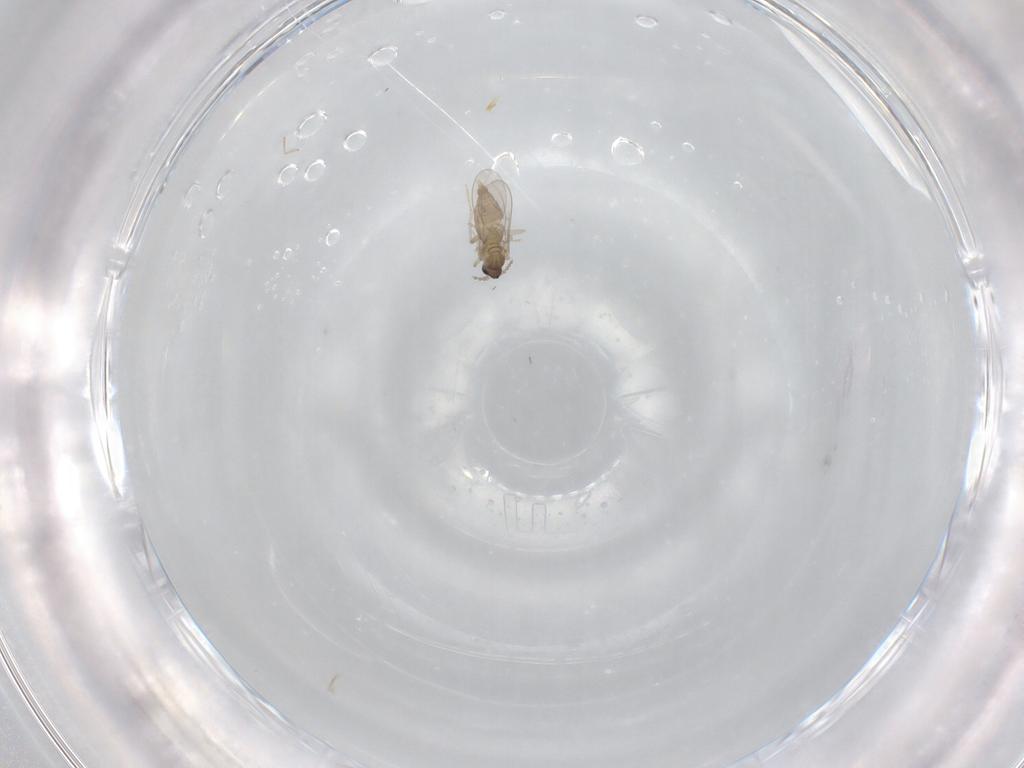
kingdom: Animalia
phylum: Arthropoda
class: Insecta
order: Diptera
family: Cecidomyiidae
